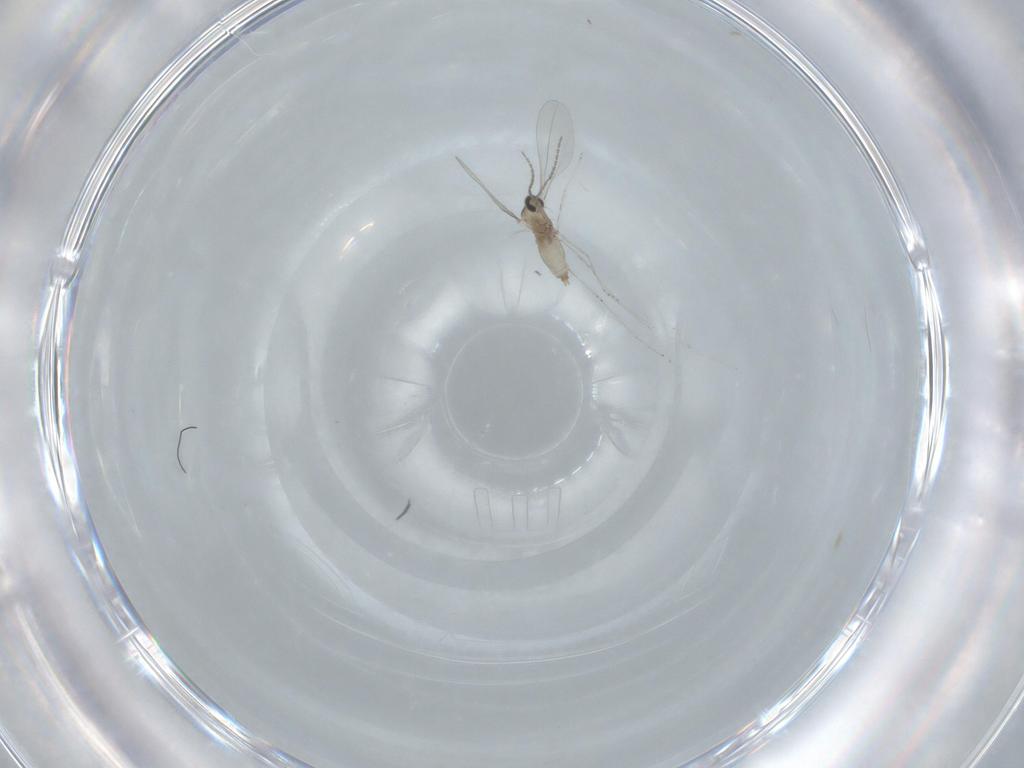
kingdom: Animalia
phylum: Arthropoda
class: Insecta
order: Diptera
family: Cecidomyiidae
